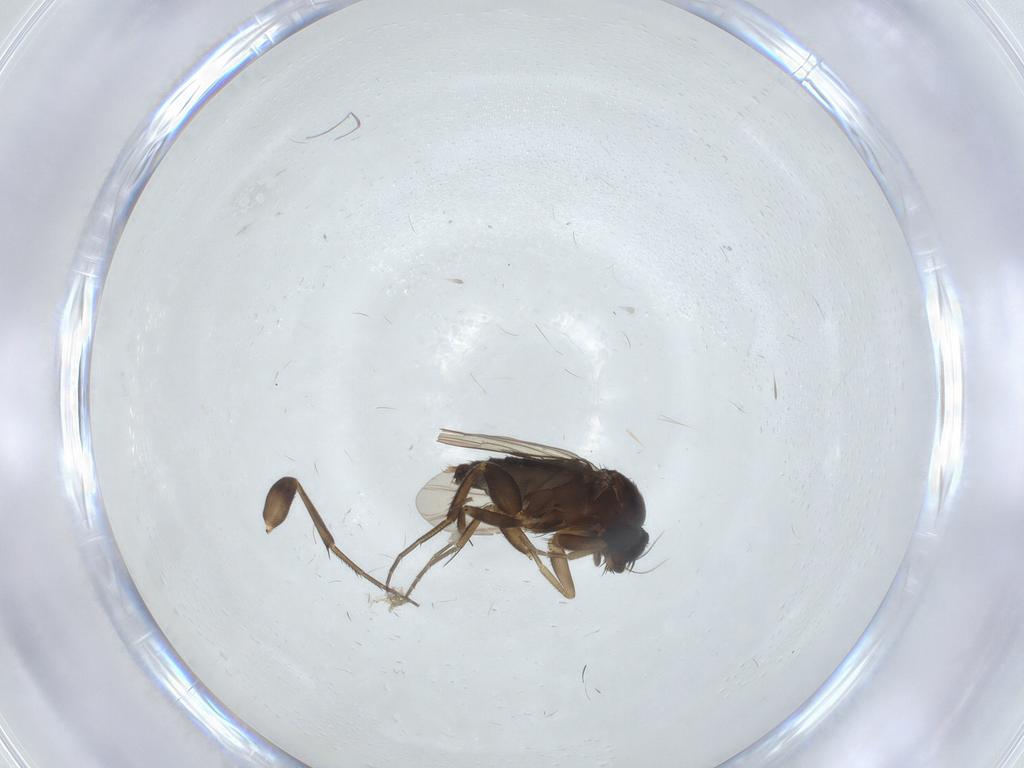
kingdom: Animalia
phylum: Arthropoda
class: Insecta
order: Diptera
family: Phoridae
